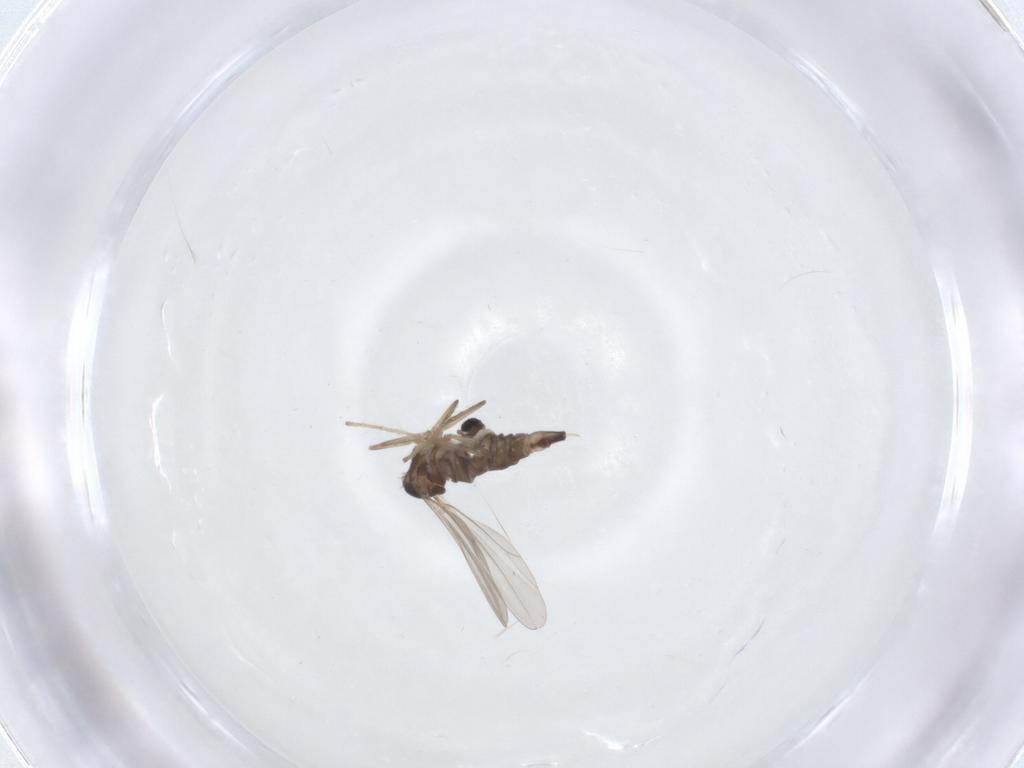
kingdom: Animalia
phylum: Arthropoda
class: Insecta
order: Diptera
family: Cecidomyiidae
